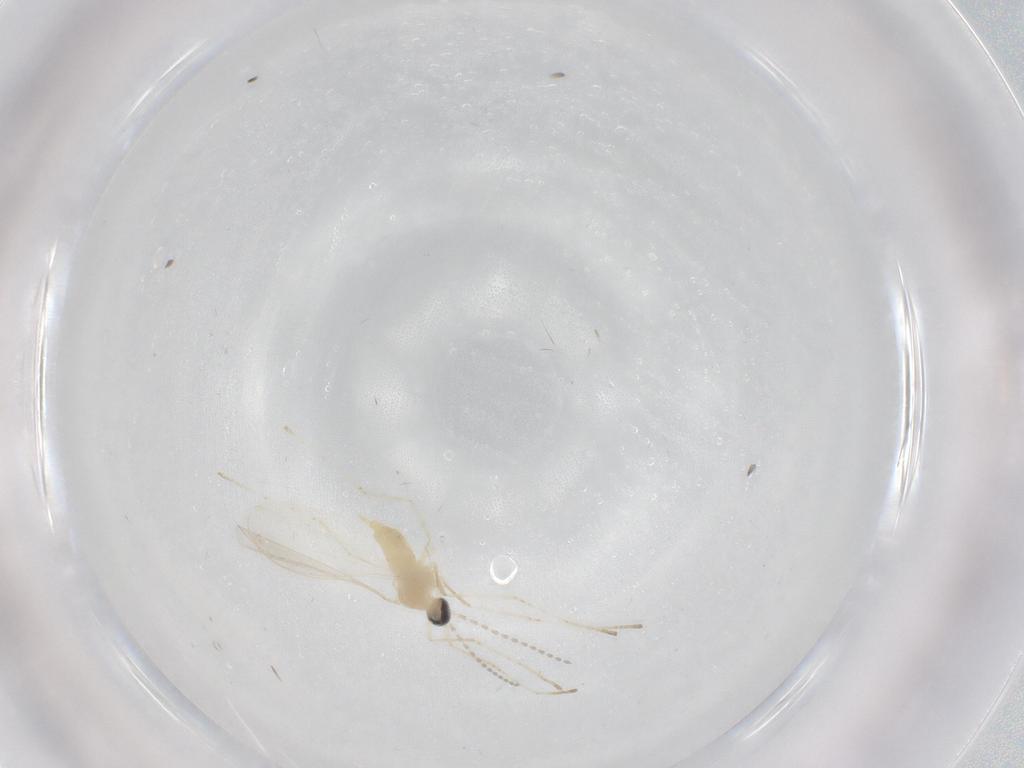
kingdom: Animalia
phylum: Arthropoda
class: Insecta
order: Diptera
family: Cecidomyiidae
